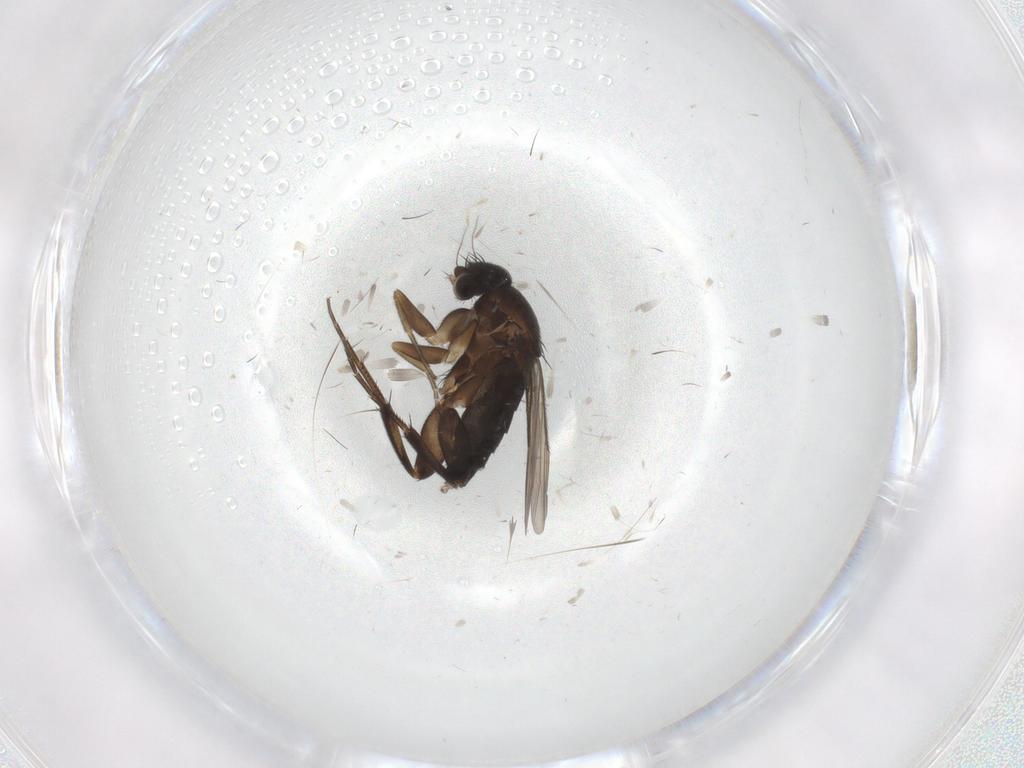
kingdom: Animalia
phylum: Arthropoda
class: Insecta
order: Diptera
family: Phoridae
